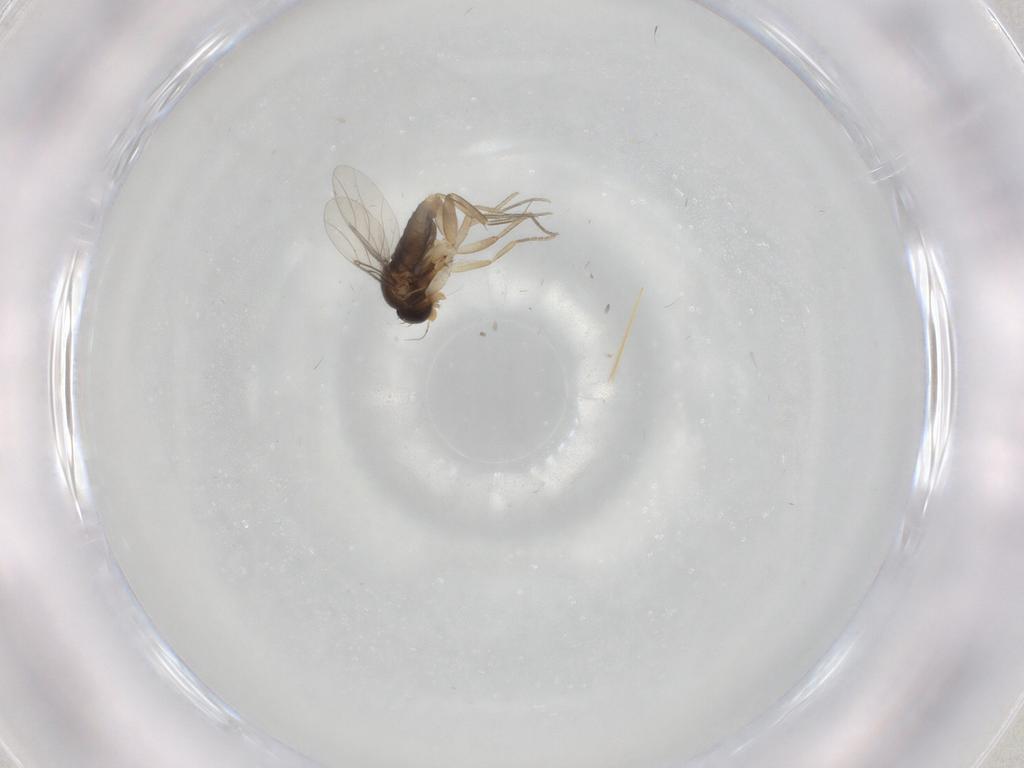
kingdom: Animalia
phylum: Arthropoda
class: Insecta
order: Diptera
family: Phoridae
